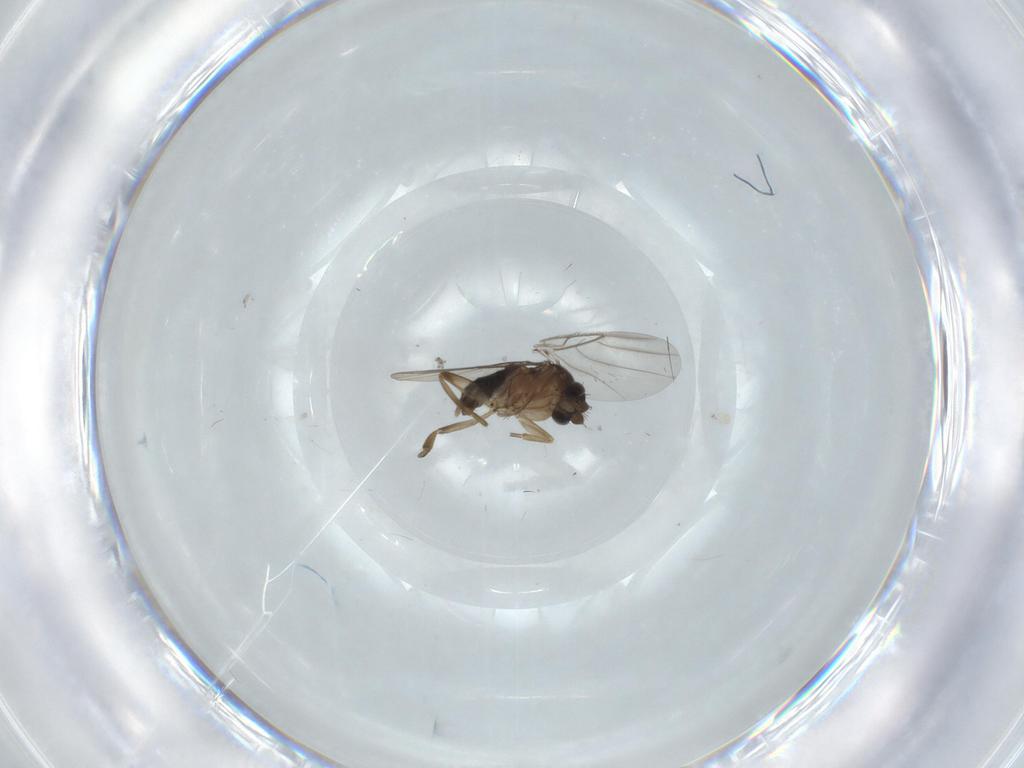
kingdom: Animalia
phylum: Arthropoda
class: Insecta
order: Diptera
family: Phoridae
